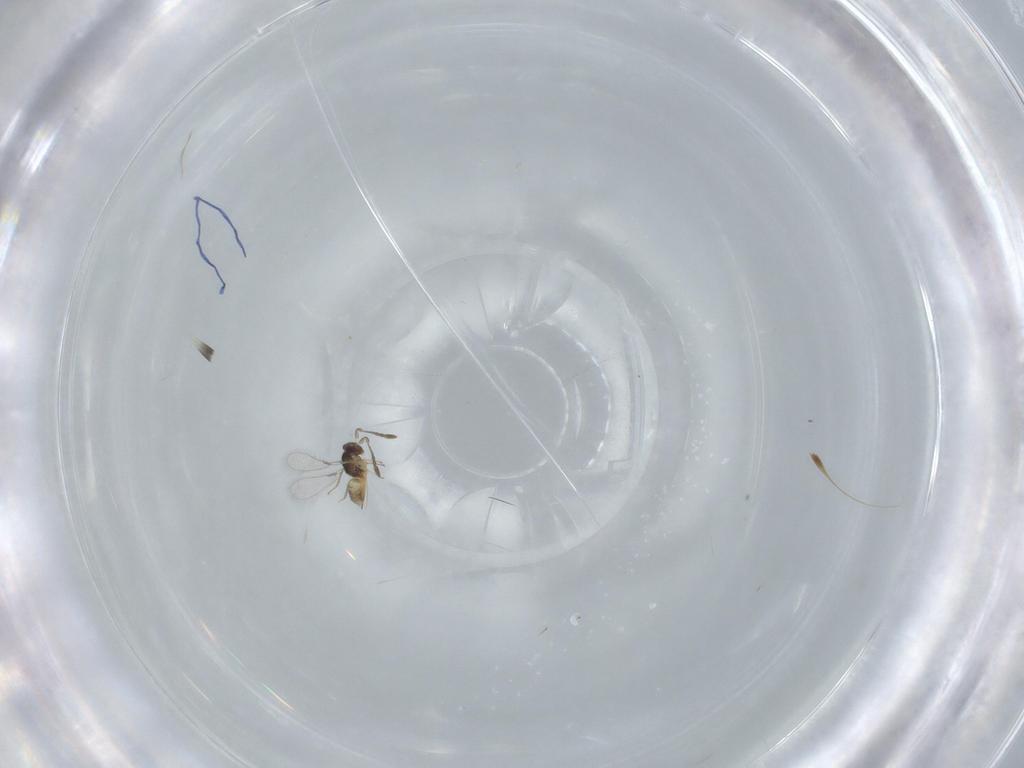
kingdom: Animalia
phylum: Arthropoda
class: Insecta
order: Hymenoptera
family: Mymaridae
